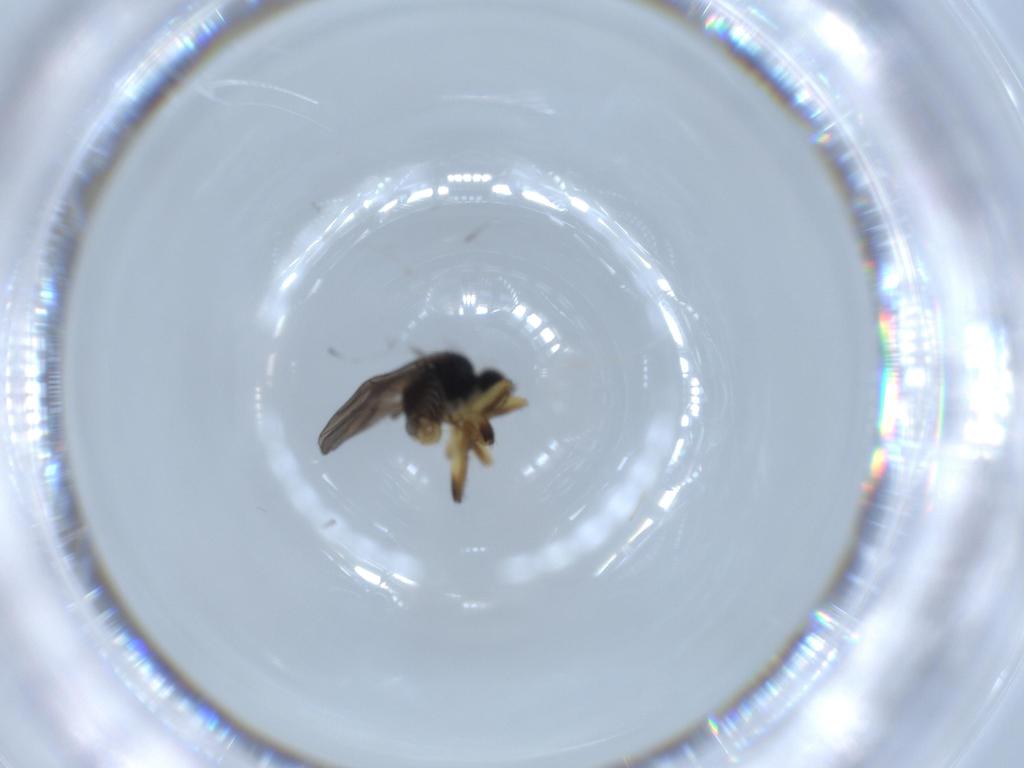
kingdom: Animalia
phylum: Arthropoda
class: Insecta
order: Diptera
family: Hybotidae
